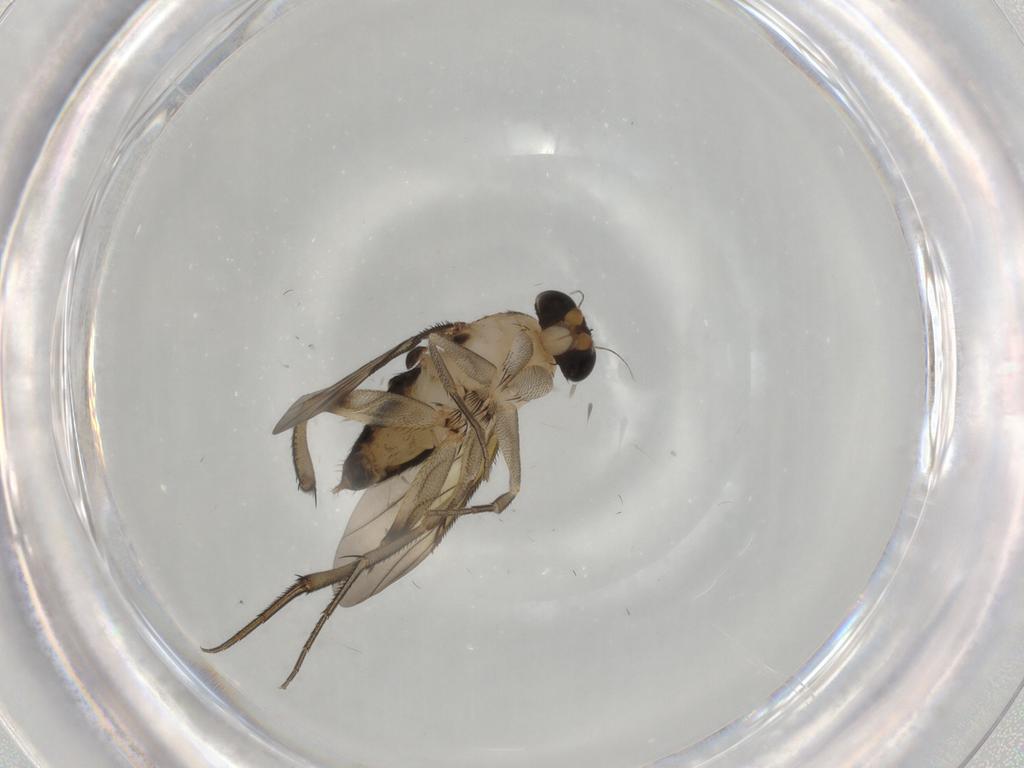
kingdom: Animalia
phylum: Arthropoda
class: Insecta
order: Diptera
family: Phoridae
